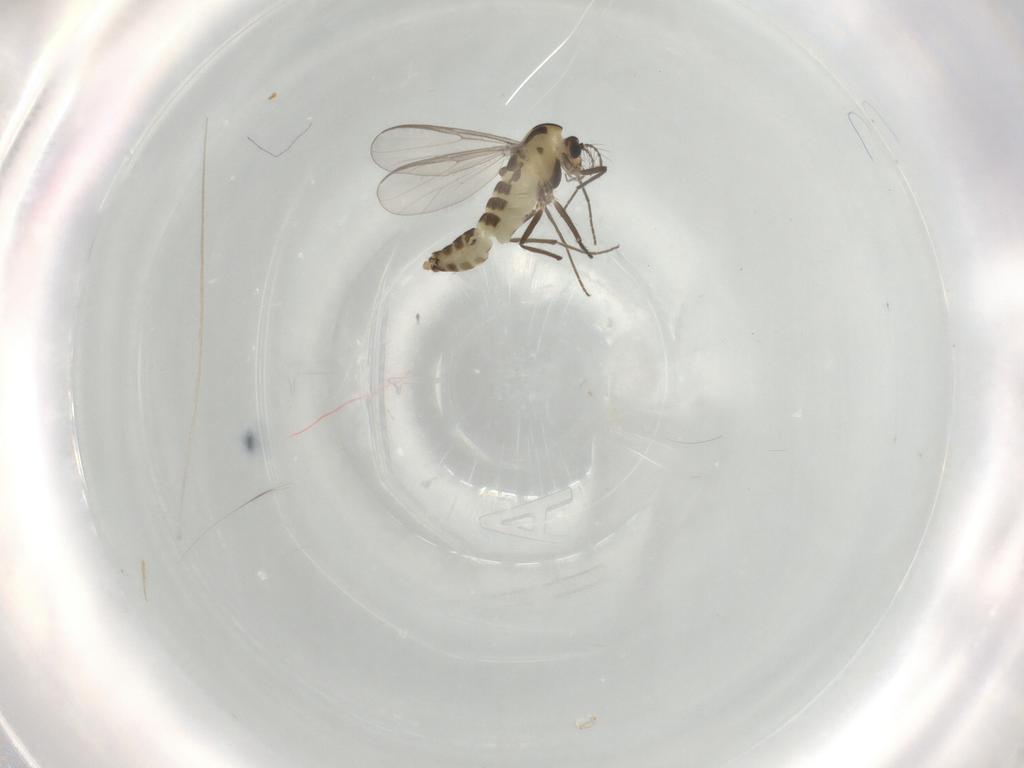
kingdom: Animalia
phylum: Arthropoda
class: Insecta
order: Diptera
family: Chironomidae
